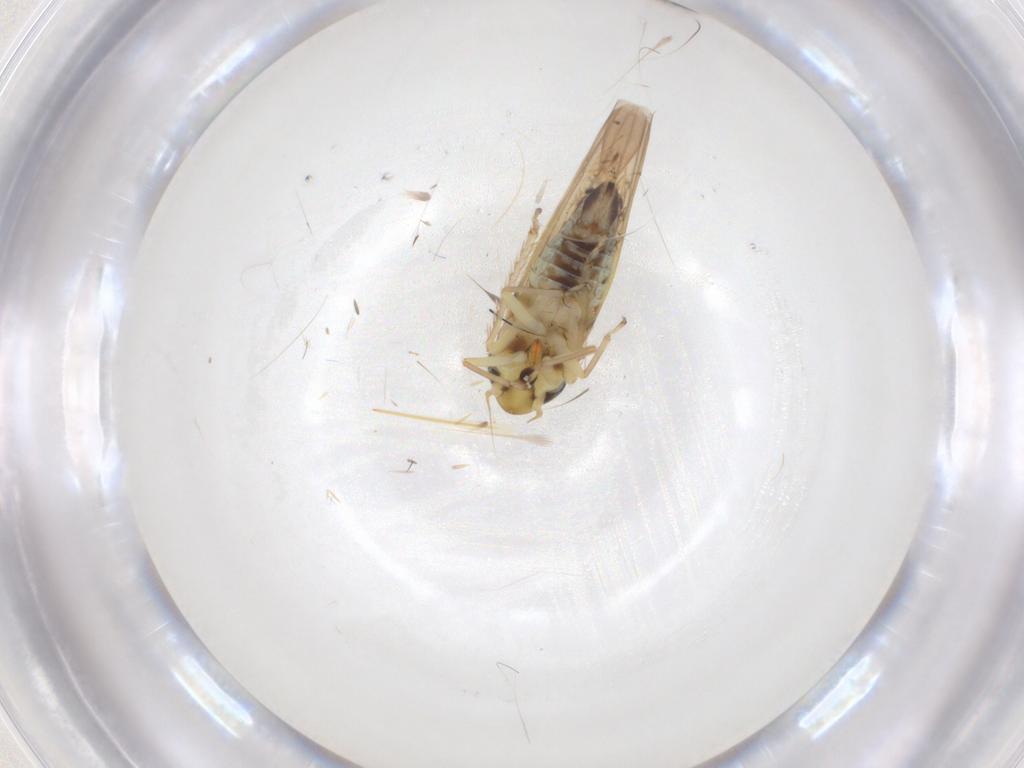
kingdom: Animalia
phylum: Arthropoda
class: Insecta
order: Hemiptera
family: Cicadellidae
